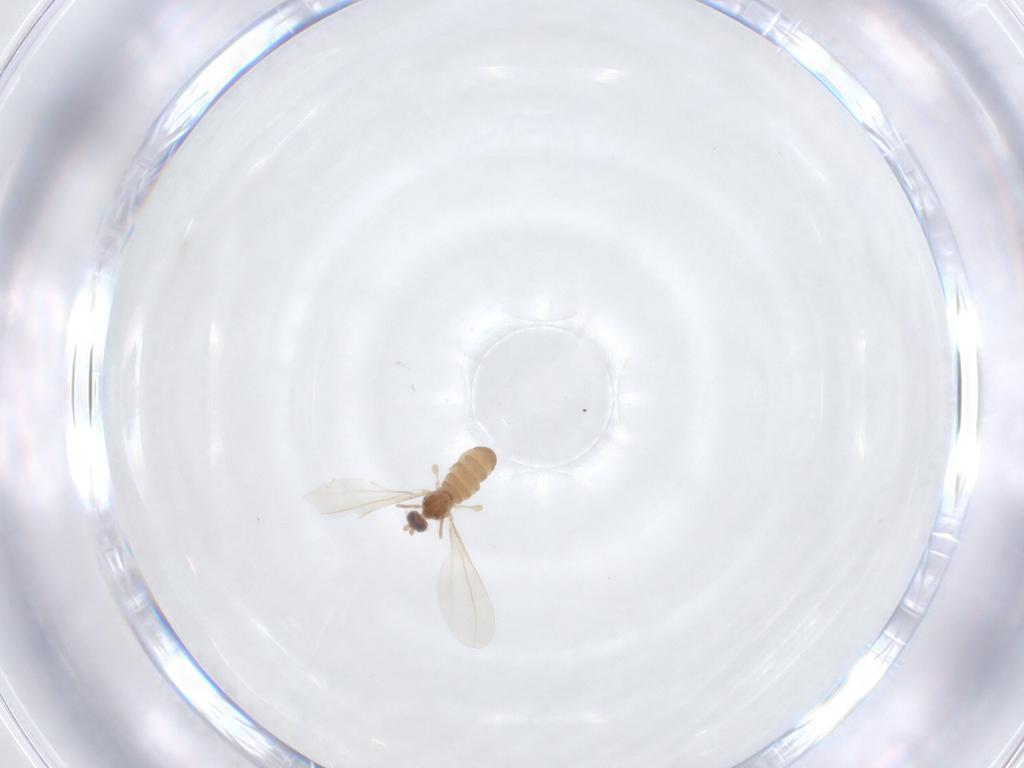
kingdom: Animalia
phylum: Arthropoda
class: Insecta
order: Diptera
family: Cecidomyiidae
